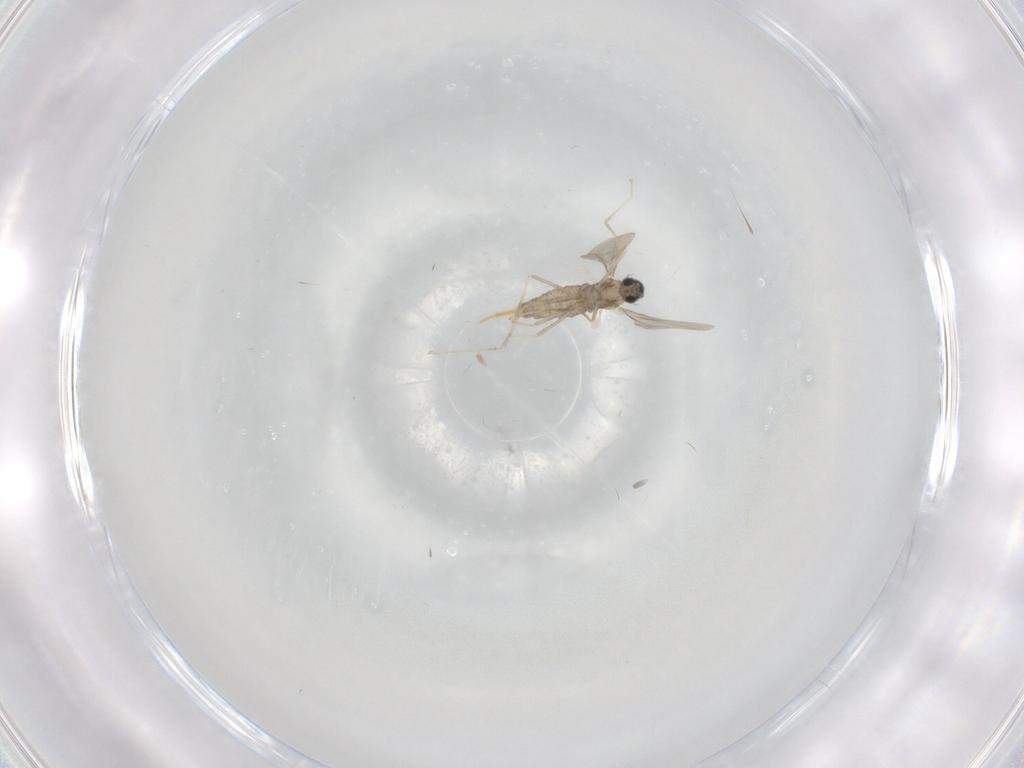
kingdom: Animalia
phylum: Arthropoda
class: Insecta
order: Diptera
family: Cecidomyiidae
